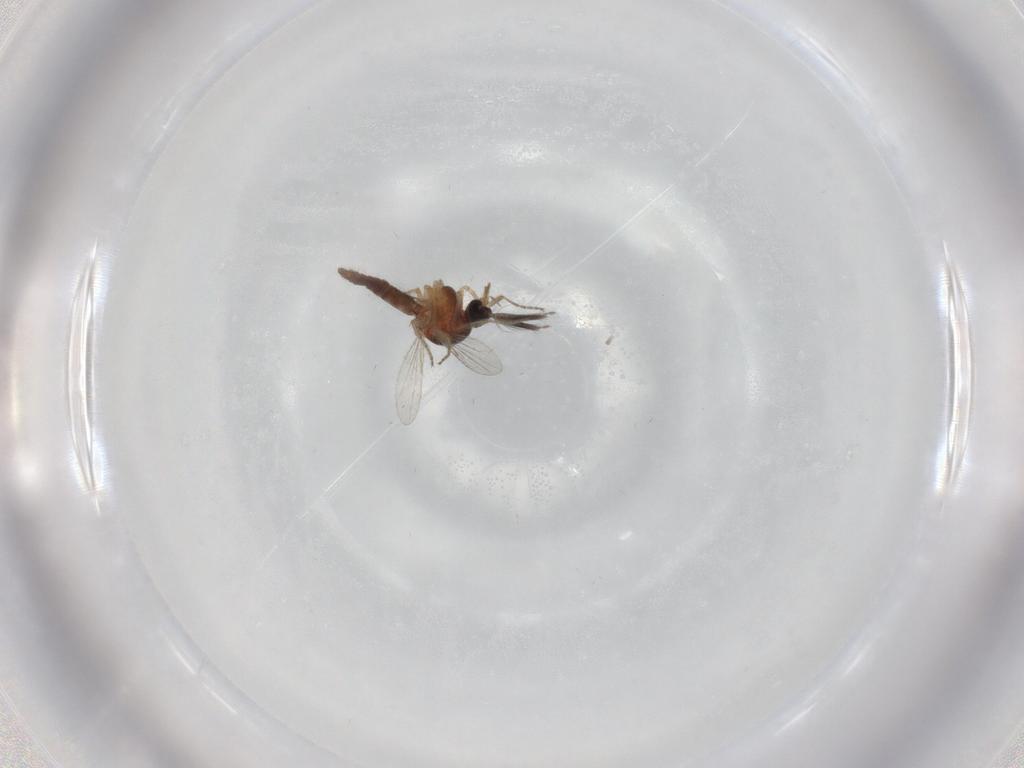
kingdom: Animalia
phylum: Arthropoda
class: Insecta
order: Diptera
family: Ceratopogonidae
